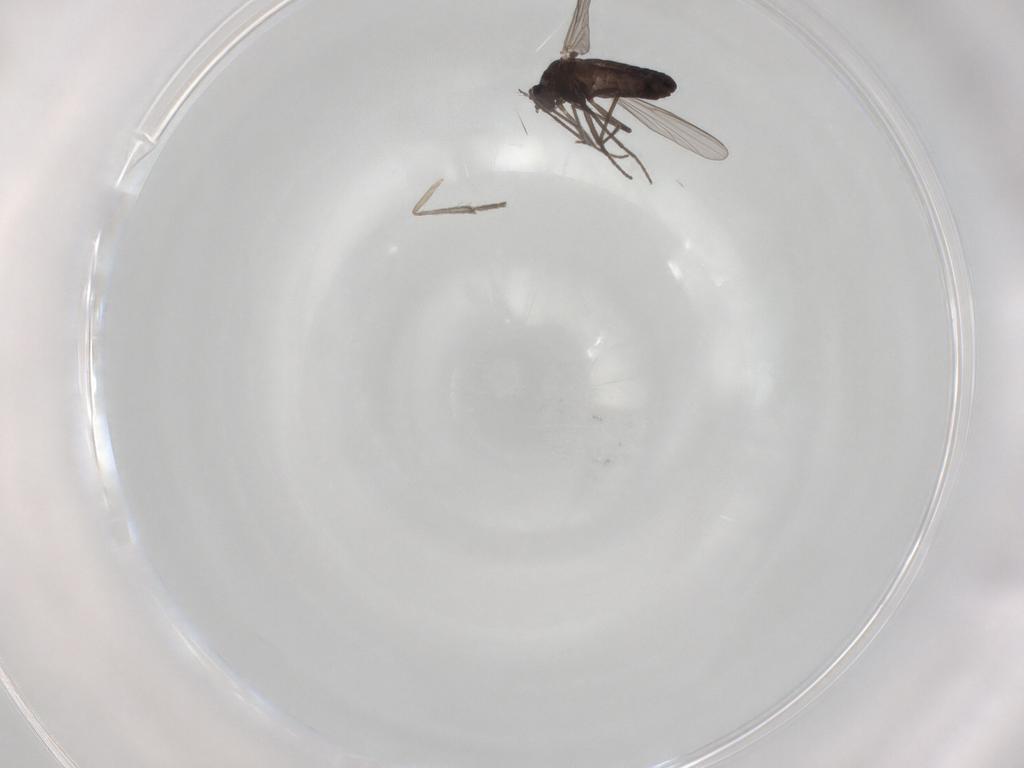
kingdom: Animalia
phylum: Arthropoda
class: Insecta
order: Diptera
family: Psychodidae
